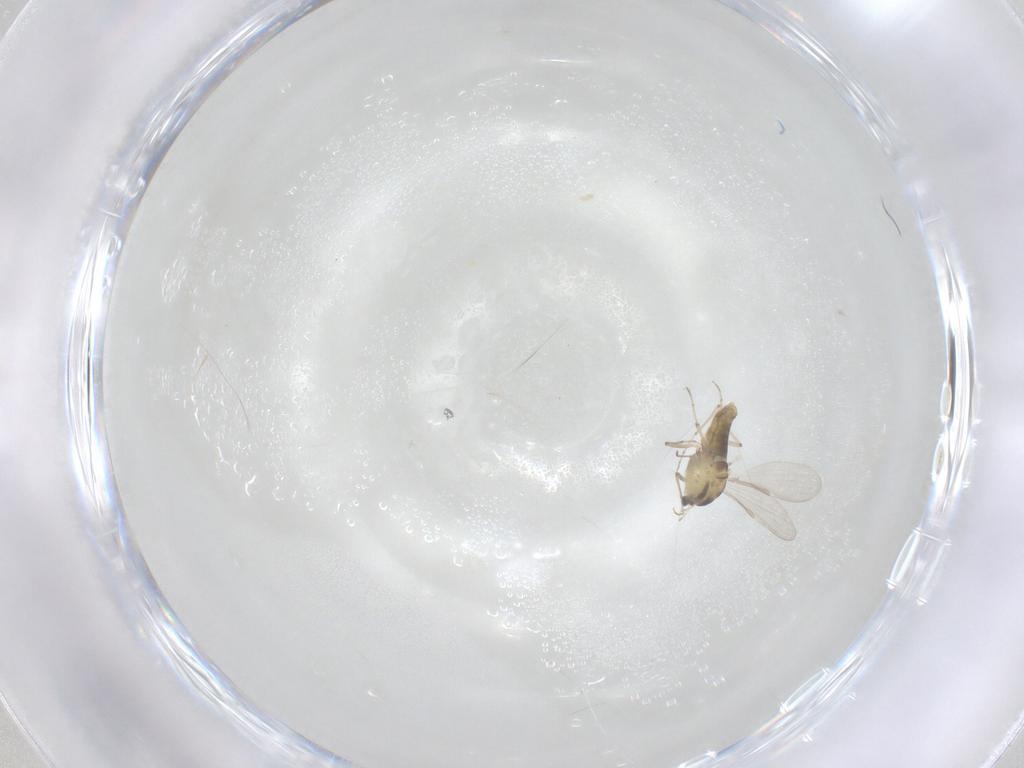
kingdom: Animalia
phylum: Arthropoda
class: Insecta
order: Diptera
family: Chironomidae
